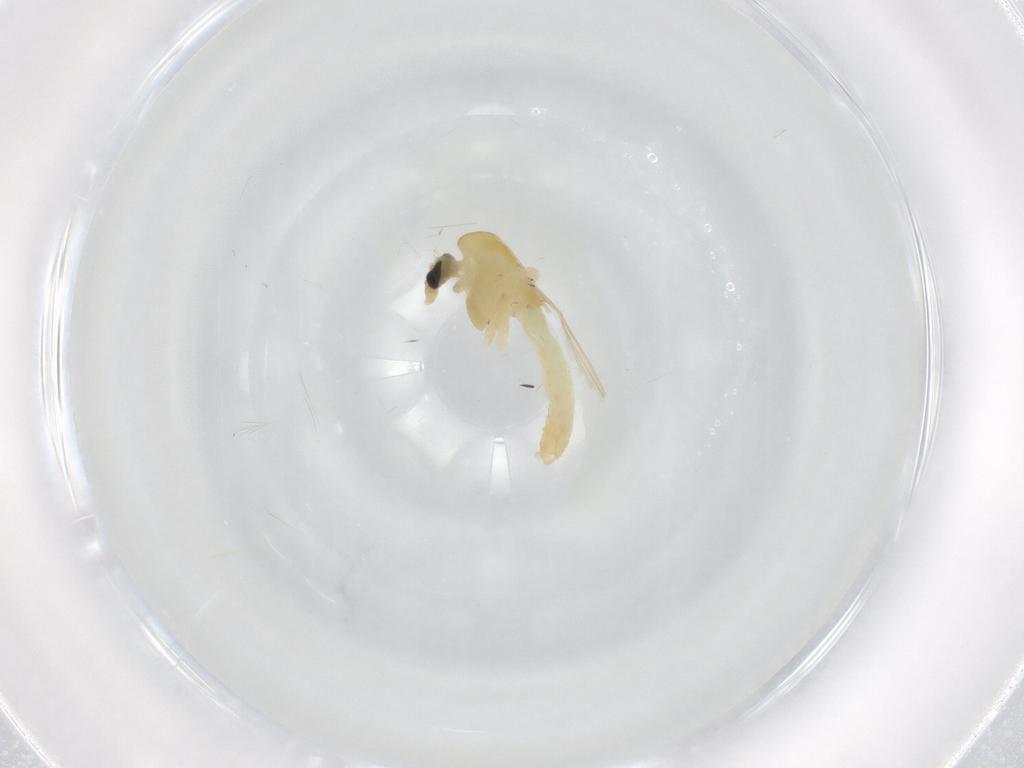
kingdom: Animalia
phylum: Arthropoda
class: Insecta
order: Diptera
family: Chironomidae
